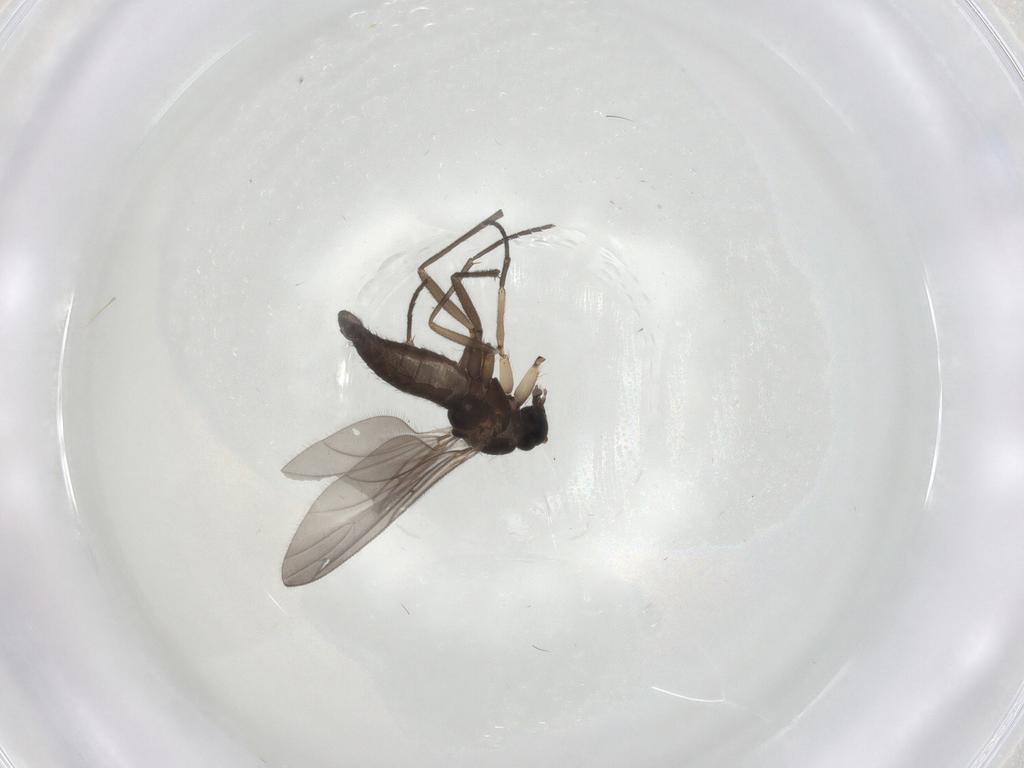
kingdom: Animalia
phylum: Arthropoda
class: Insecta
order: Diptera
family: Sciaridae
